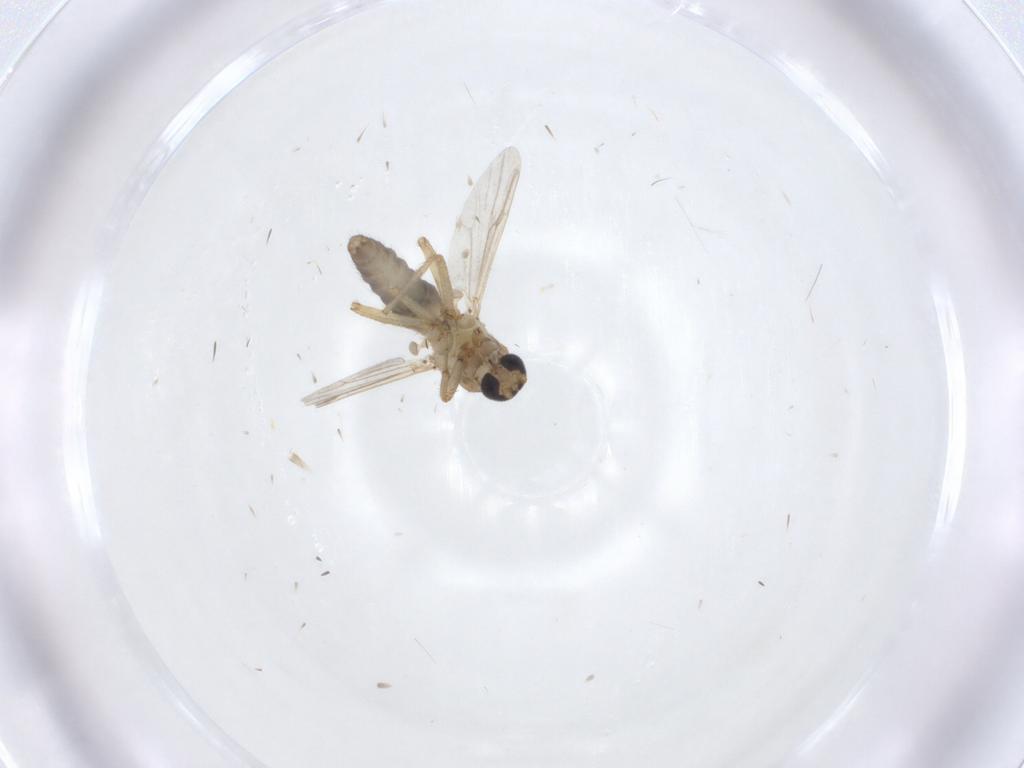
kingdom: Animalia
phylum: Arthropoda
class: Insecta
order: Diptera
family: Ceratopogonidae
